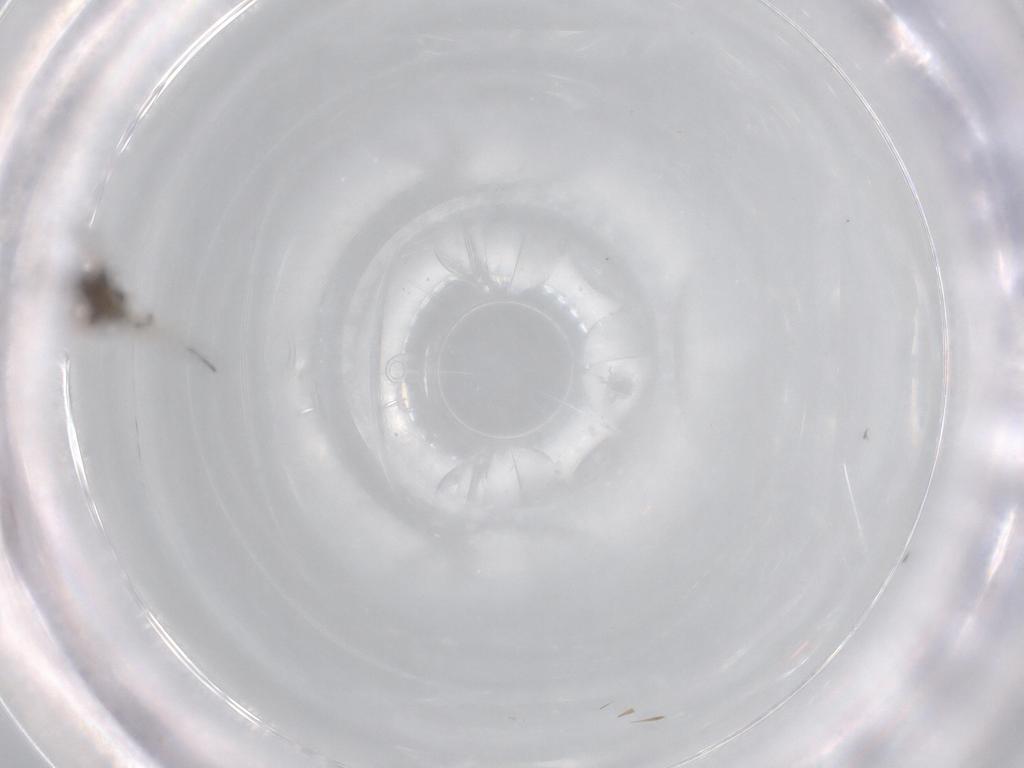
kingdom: Animalia
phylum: Arthropoda
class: Insecta
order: Diptera
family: Cecidomyiidae
